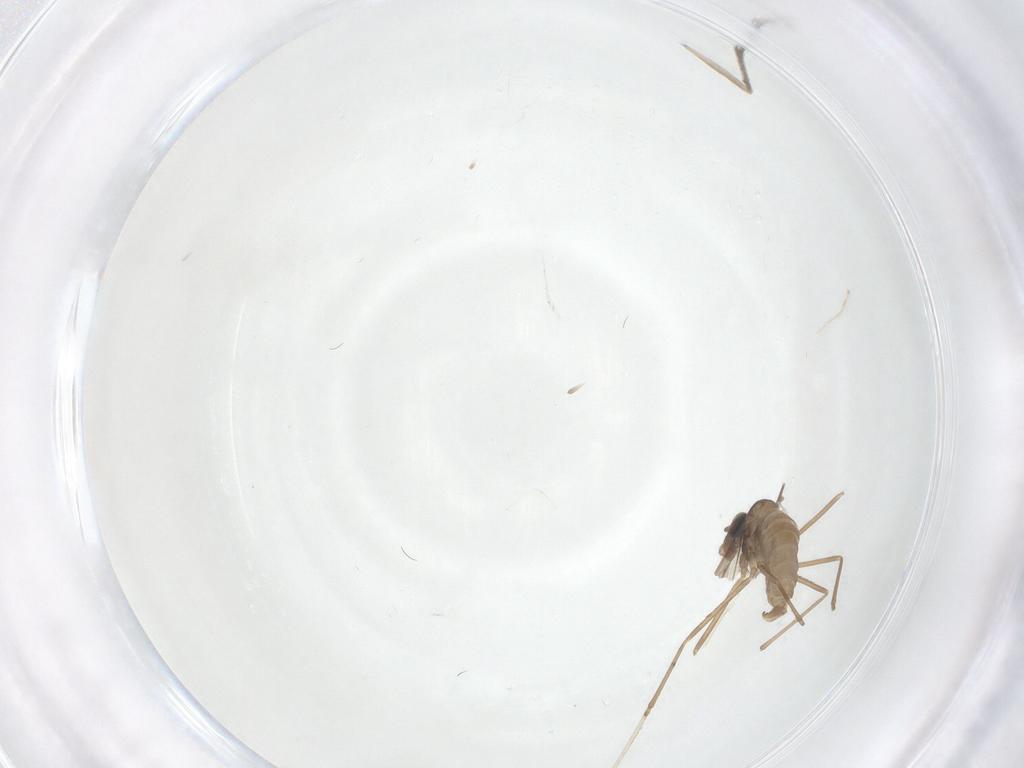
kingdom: Animalia
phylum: Arthropoda
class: Insecta
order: Diptera
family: Cecidomyiidae
